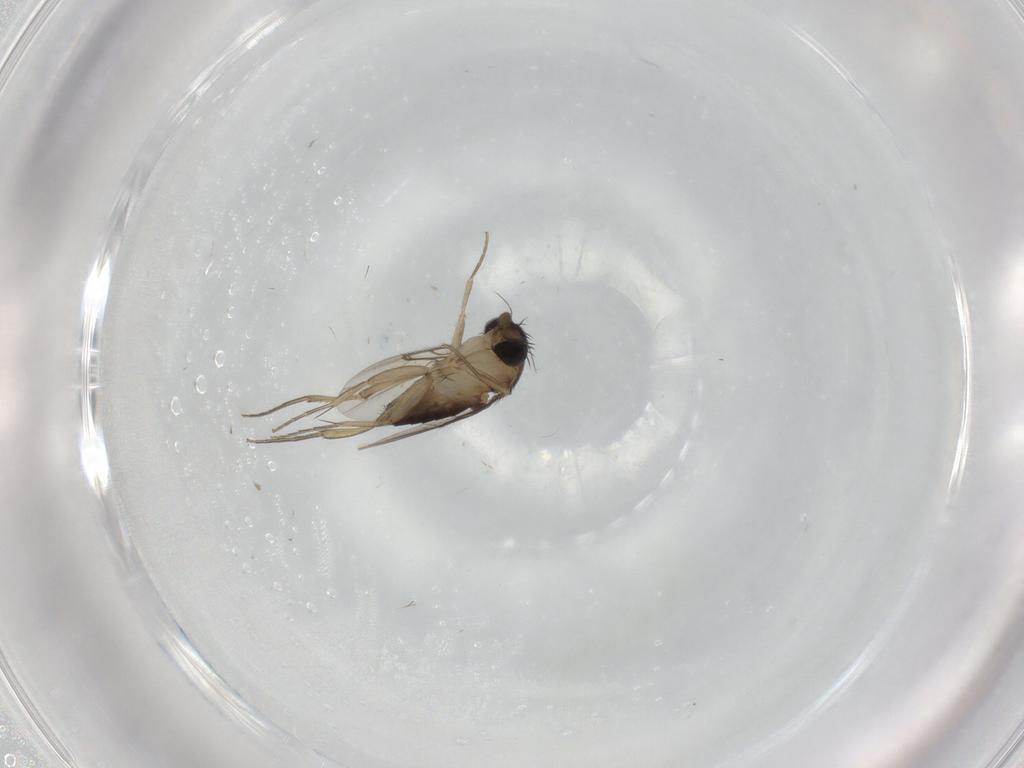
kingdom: Animalia
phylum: Arthropoda
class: Insecta
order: Diptera
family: Phoridae
